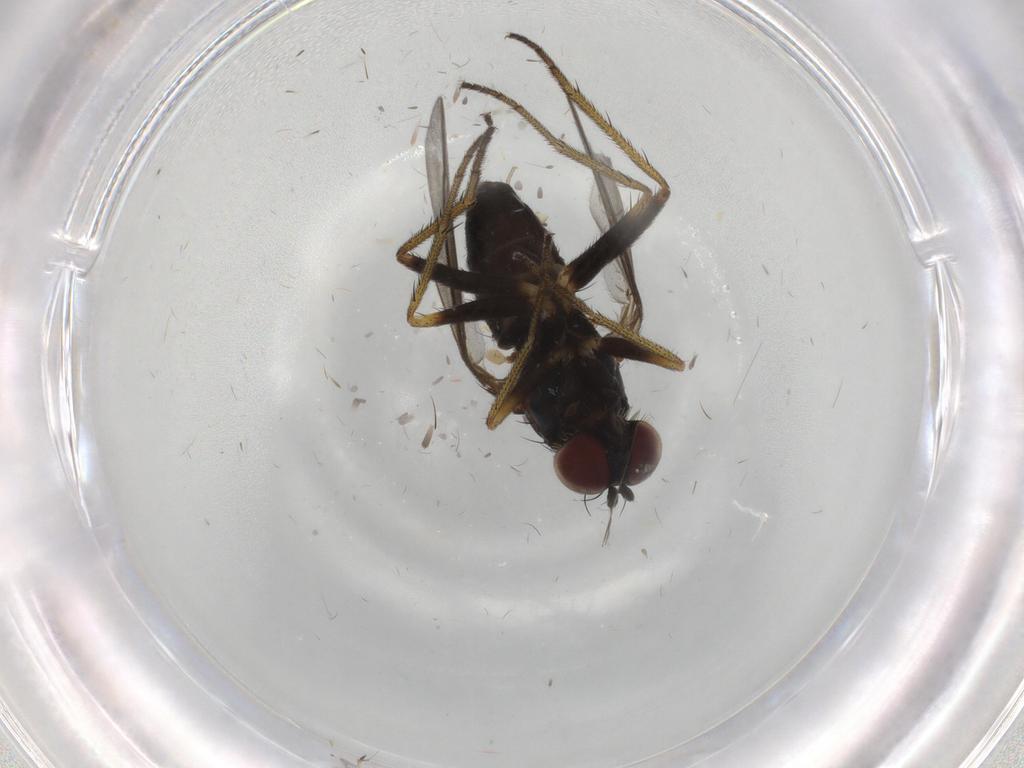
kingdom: Animalia
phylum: Arthropoda
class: Insecta
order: Diptera
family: Phoridae
